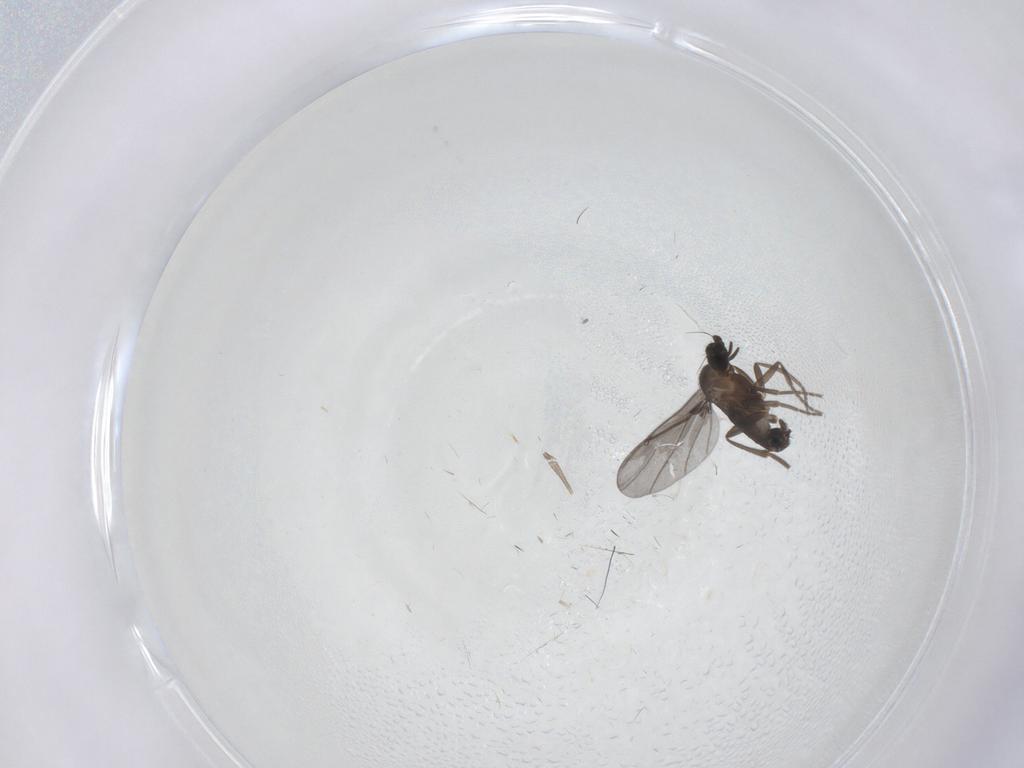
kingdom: Animalia
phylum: Arthropoda
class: Insecta
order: Diptera
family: Phoridae
